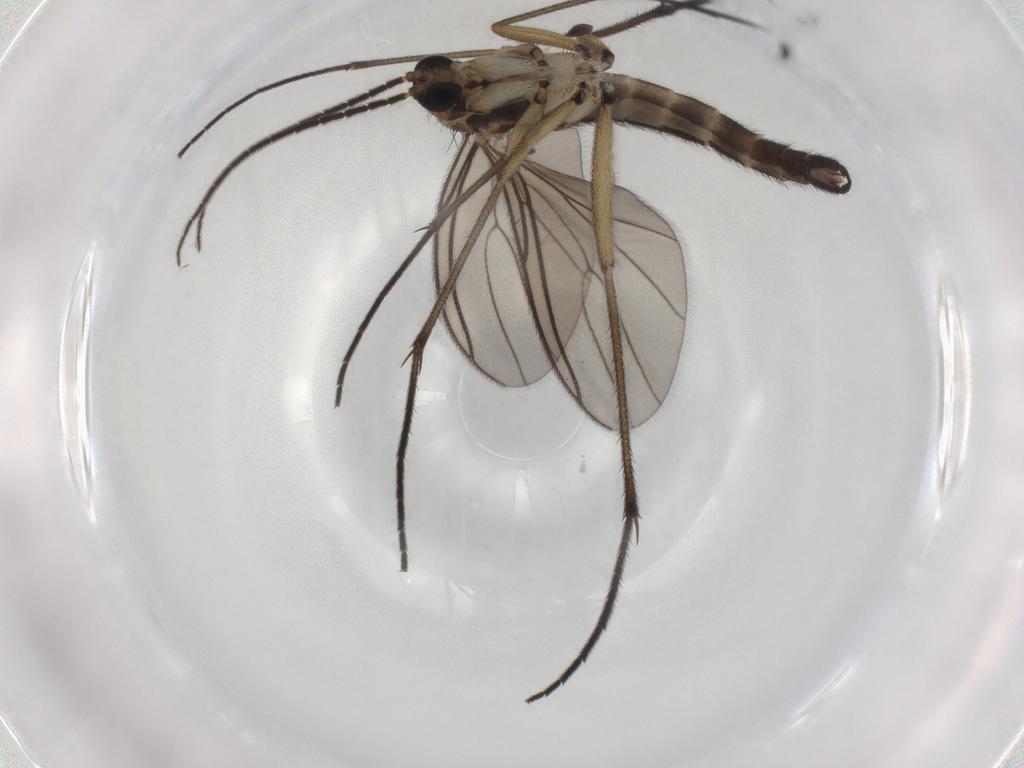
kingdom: Animalia
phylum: Arthropoda
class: Insecta
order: Diptera
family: Sciaridae
